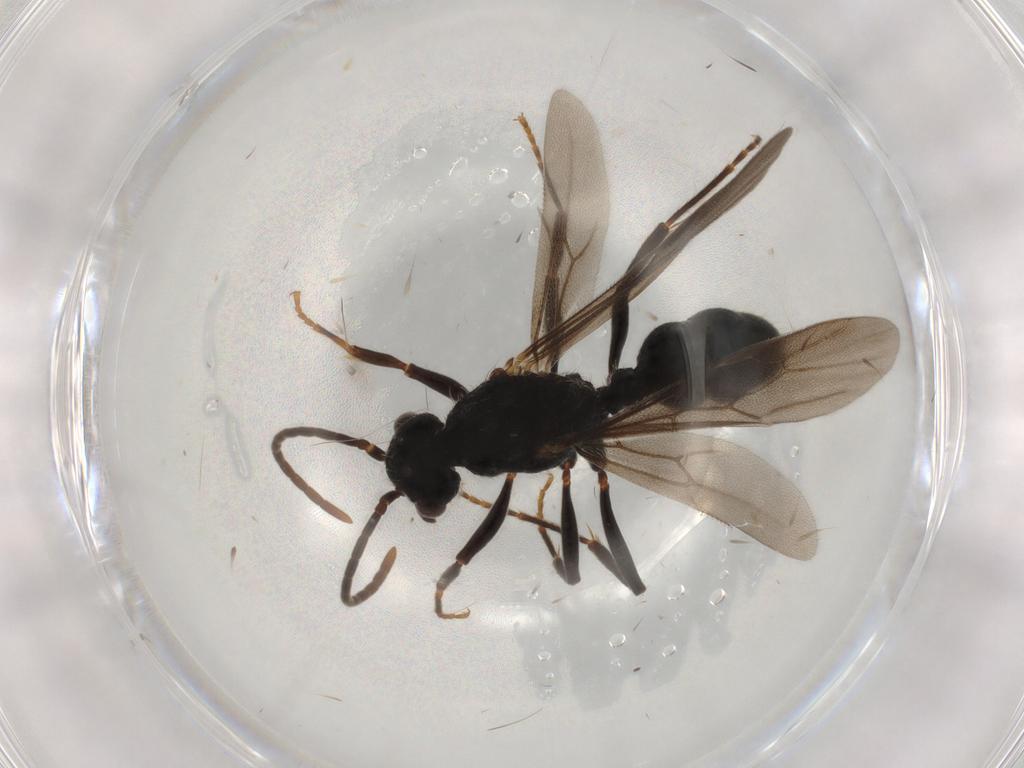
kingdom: Animalia
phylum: Arthropoda
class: Insecta
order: Hymenoptera
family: Formicidae
